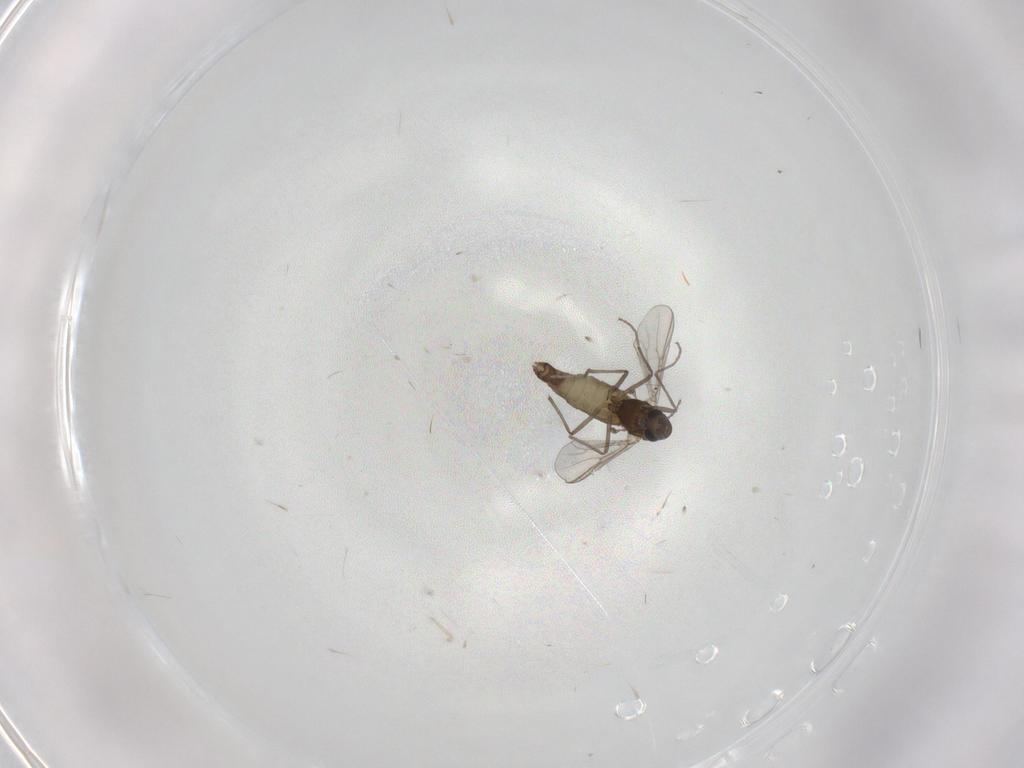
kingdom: Animalia
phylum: Arthropoda
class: Insecta
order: Diptera
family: Chironomidae
